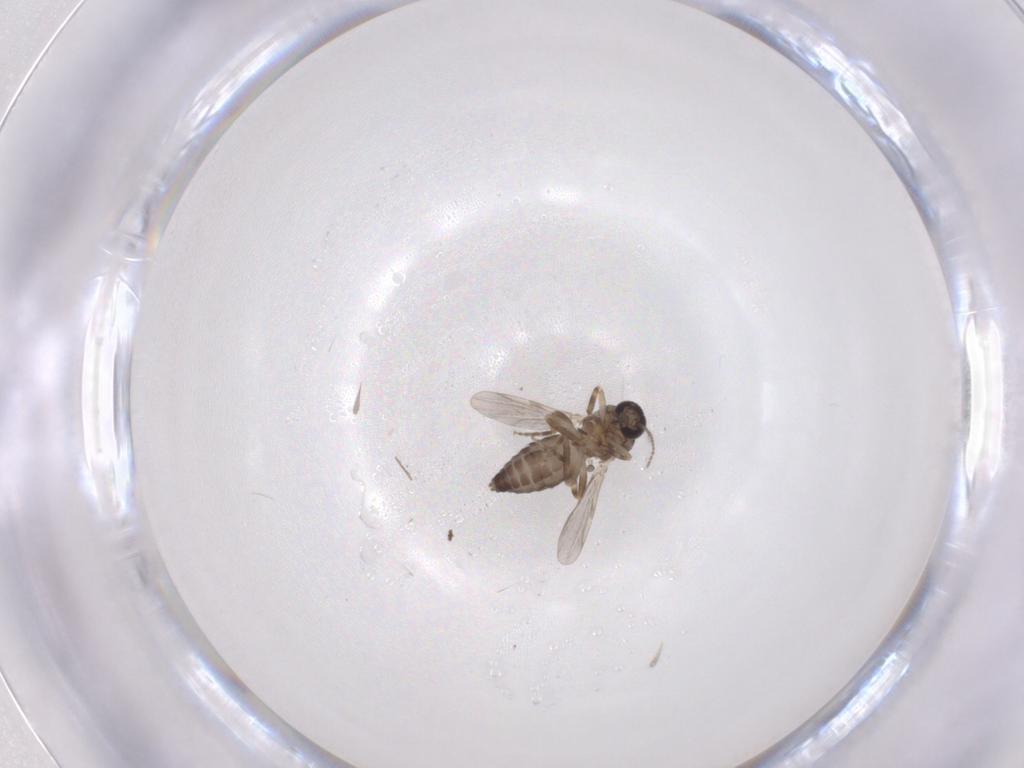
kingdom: Animalia
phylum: Arthropoda
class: Insecta
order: Diptera
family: Ceratopogonidae
